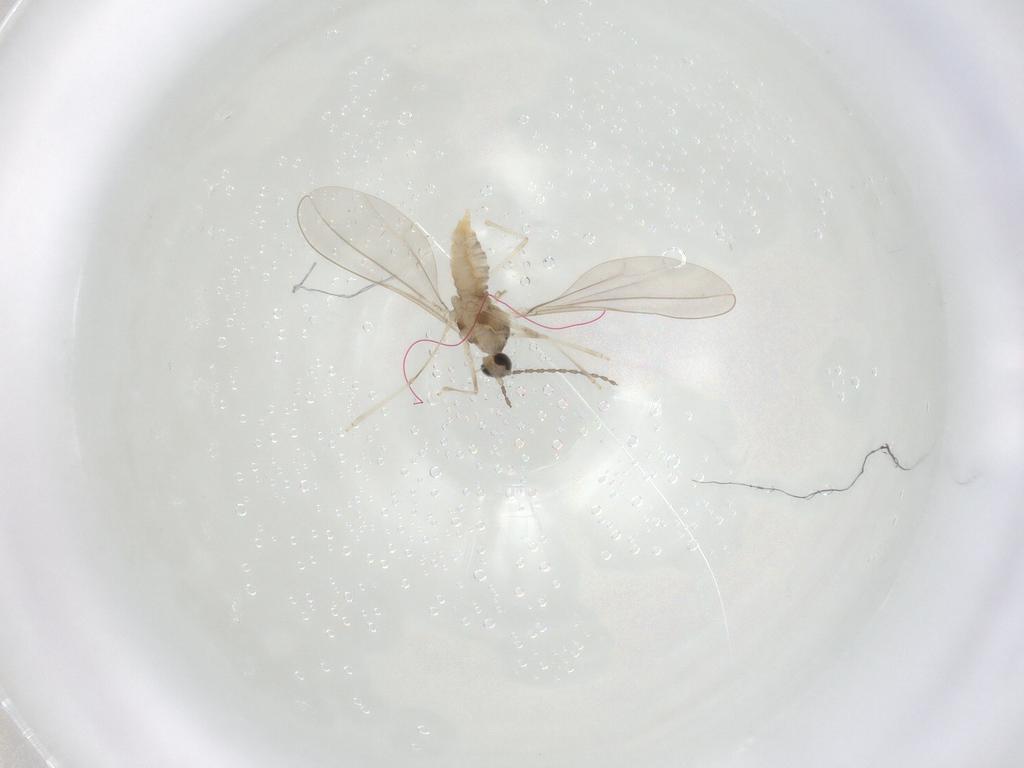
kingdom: Animalia
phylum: Arthropoda
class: Insecta
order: Diptera
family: Cecidomyiidae
